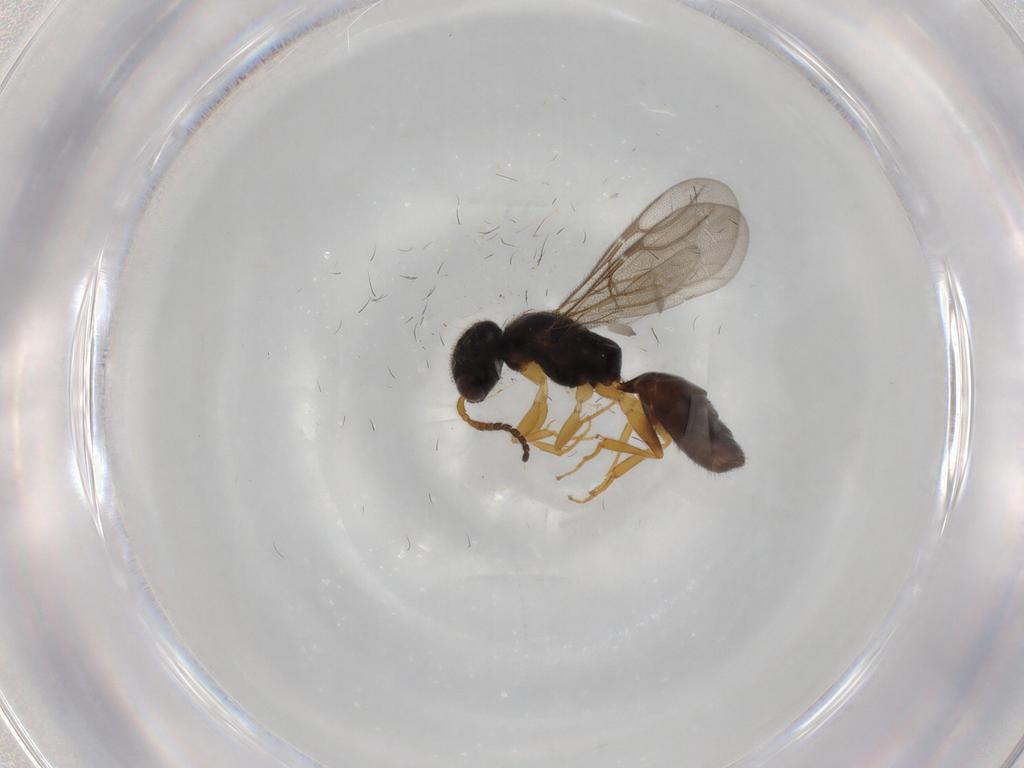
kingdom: Animalia
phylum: Arthropoda
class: Insecta
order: Hymenoptera
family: Bethylidae
